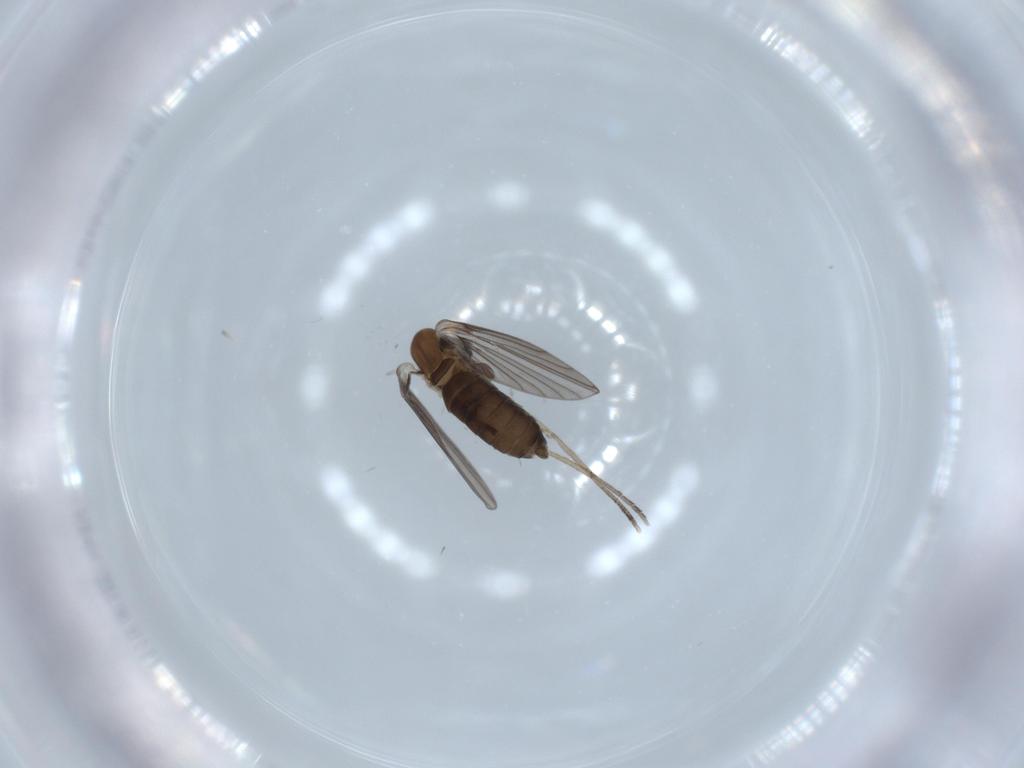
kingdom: Animalia
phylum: Arthropoda
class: Insecta
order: Diptera
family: Psychodidae
